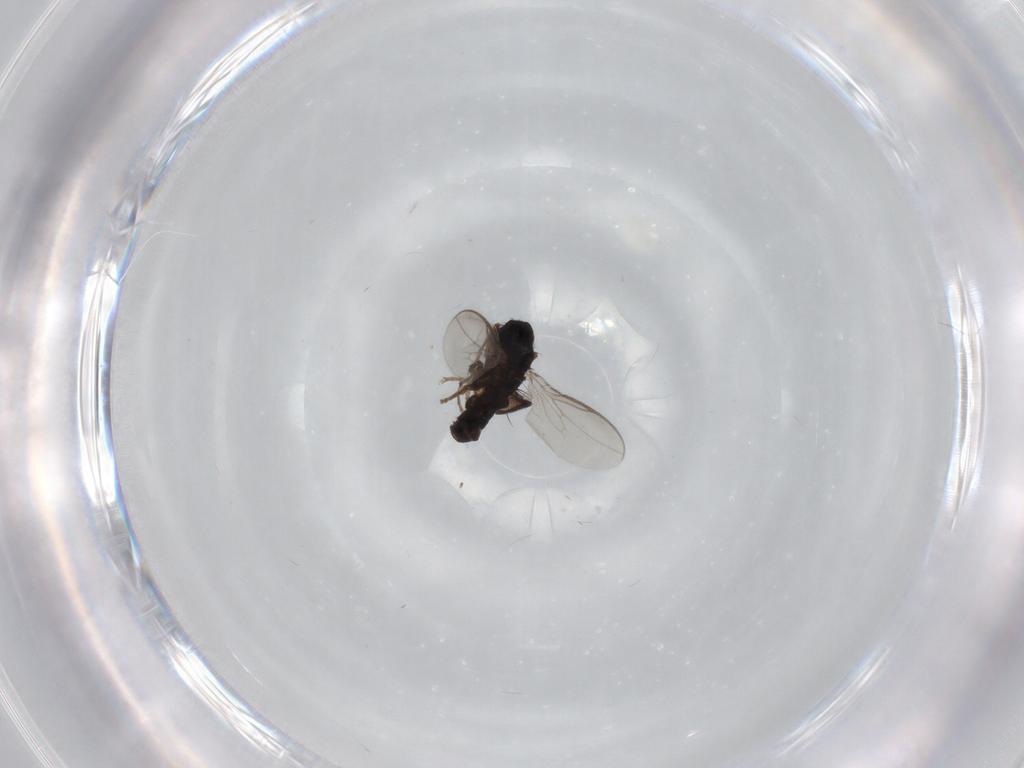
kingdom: Animalia
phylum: Arthropoda
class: Insecta
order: Diptera
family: Sphaeroceridae
